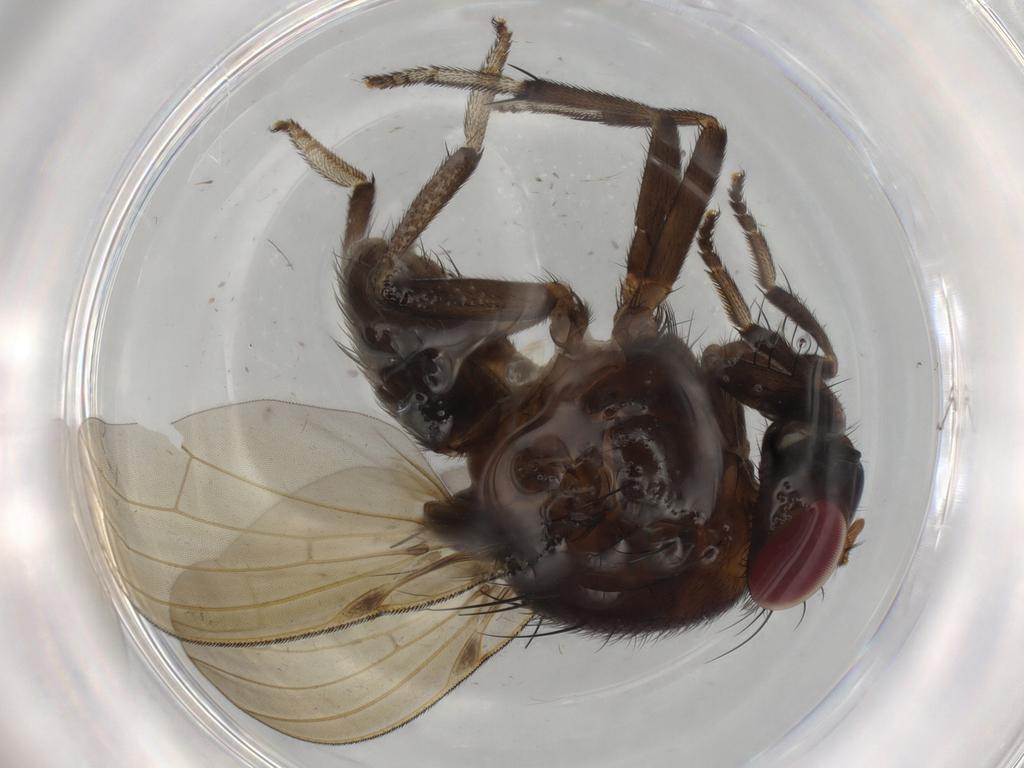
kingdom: Animalia
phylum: Arthropoda
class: Insecta
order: Diptera
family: Lauxaniidae
